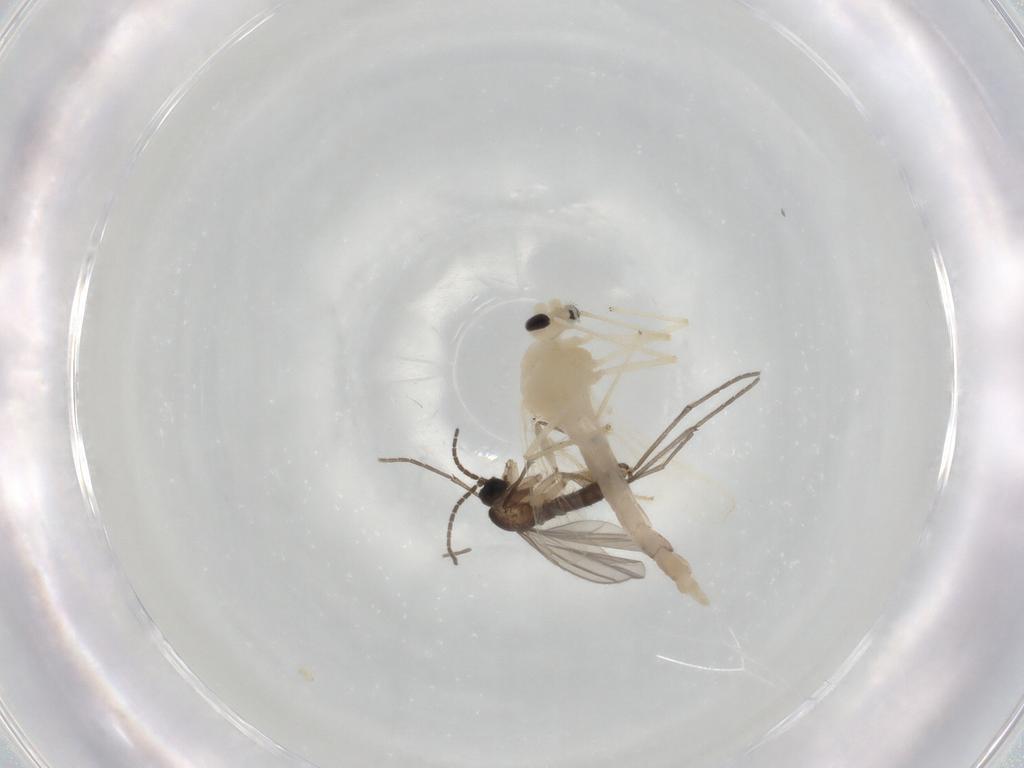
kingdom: Animalia
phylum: Arthropoda
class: Insecta
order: Diptera
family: Chironomidae
